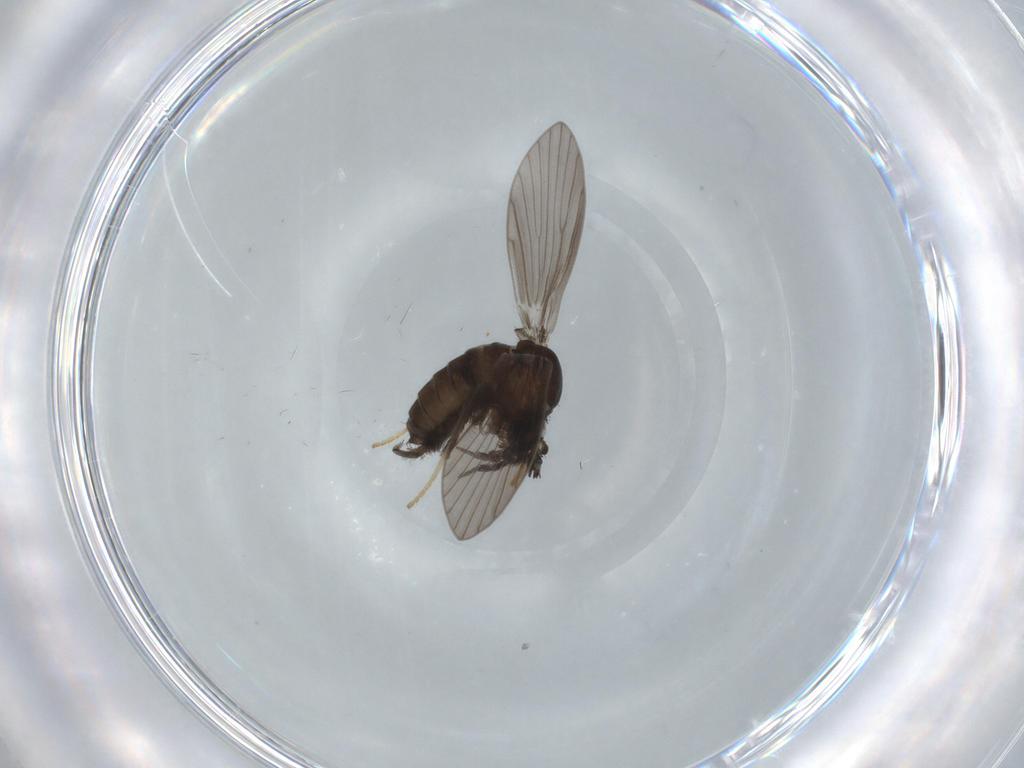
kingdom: Animalia
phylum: Arthropoda
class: Insecta
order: Diptera
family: Psychodidae
